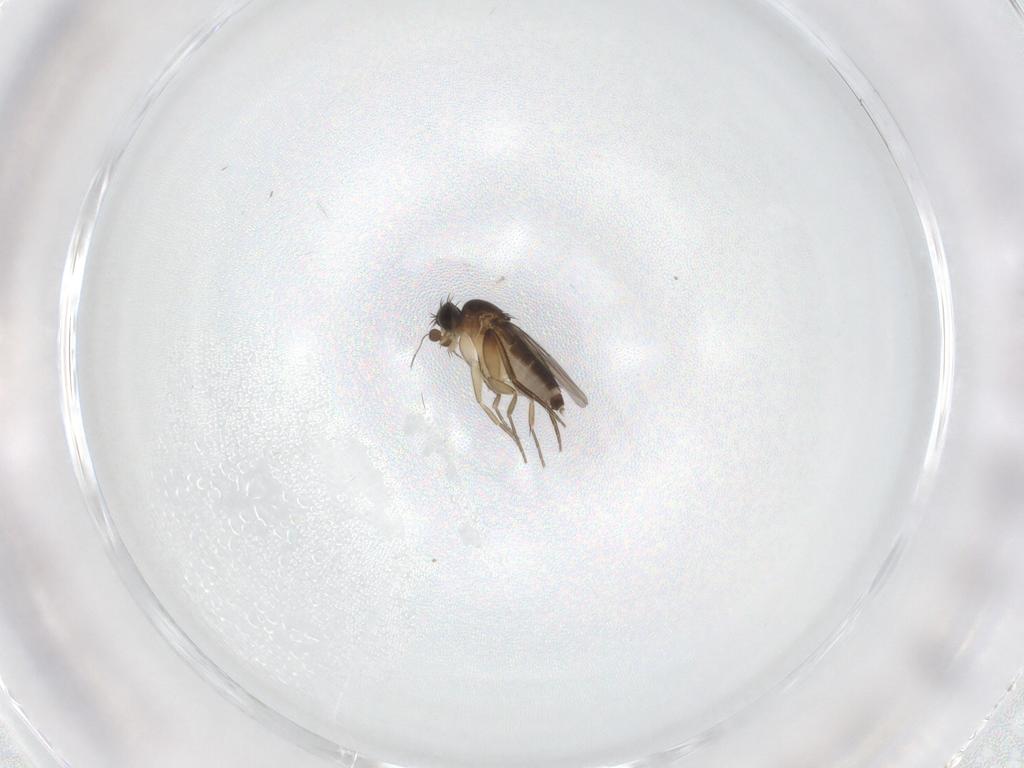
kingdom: Animalia
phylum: Arthropoda
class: Insecta
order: Diptera
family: Phoridae
